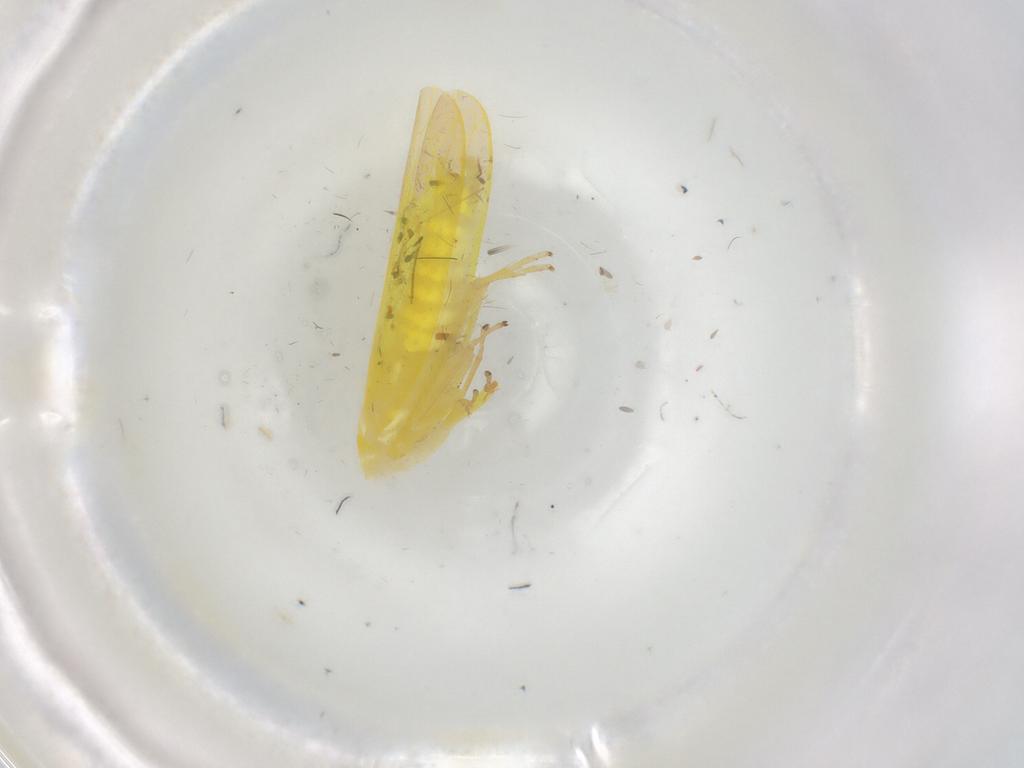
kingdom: Animalia
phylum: Arthropoda
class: Insecta
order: Hemiptera
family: Cicadellidae
